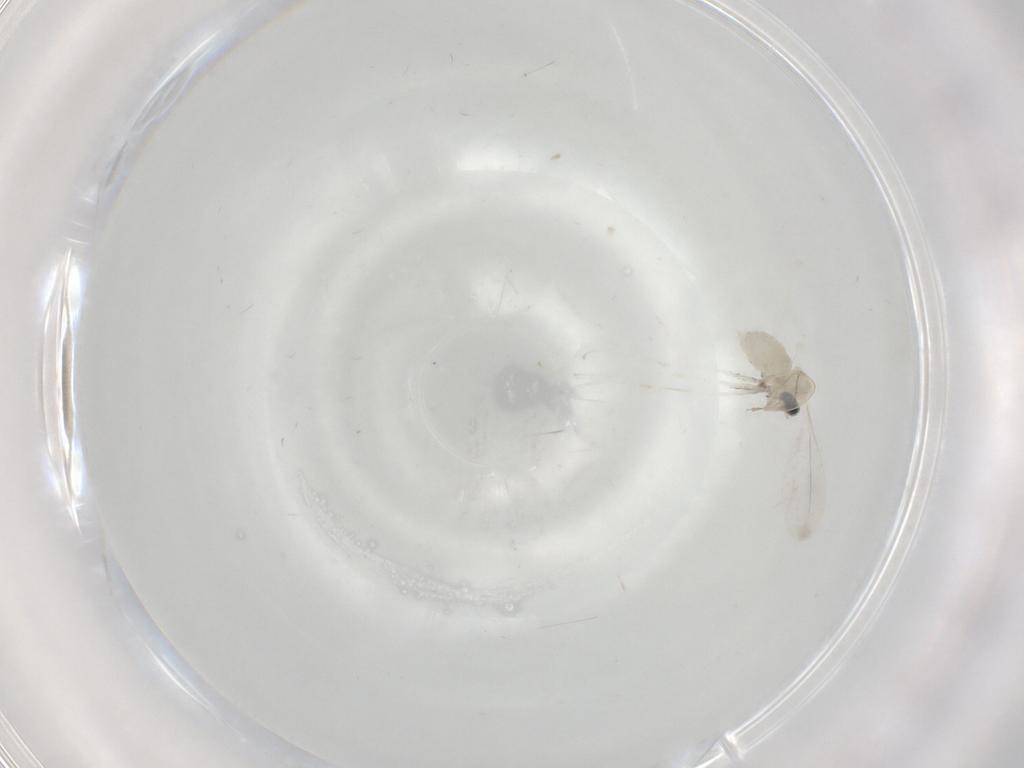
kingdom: Animalia
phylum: Arthropoda
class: Insecta
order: Diptera
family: Cecidomyiidae
